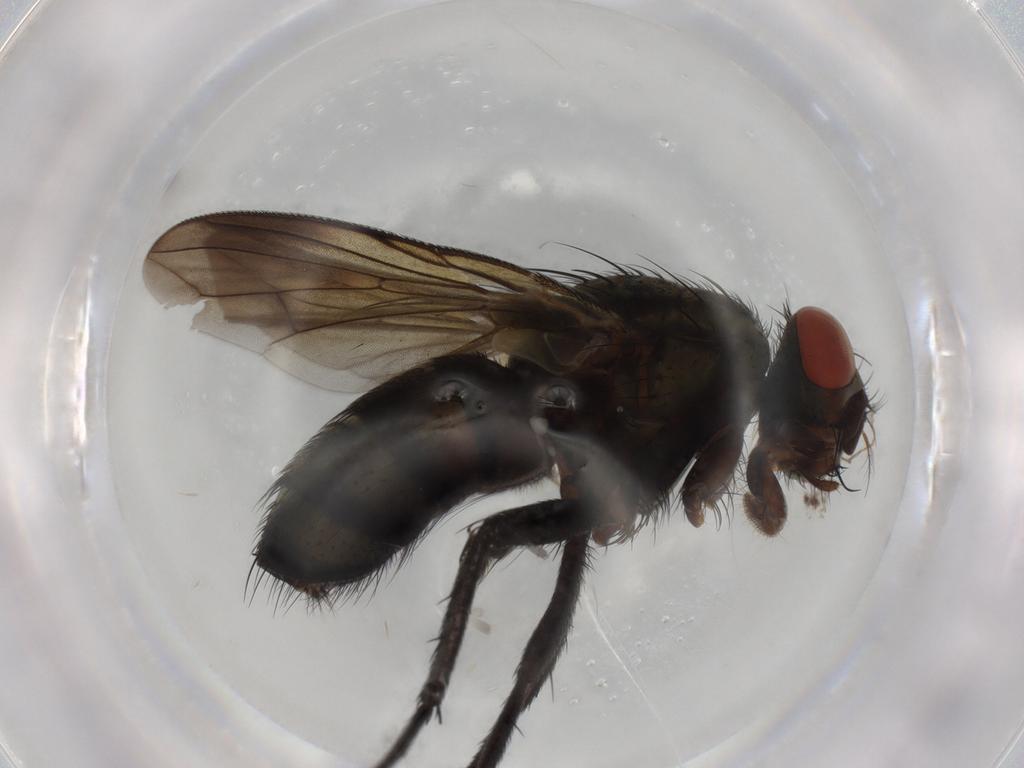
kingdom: Animalia
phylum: Arthropoda
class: Insecta
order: Diptera
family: Sarcophagidae
